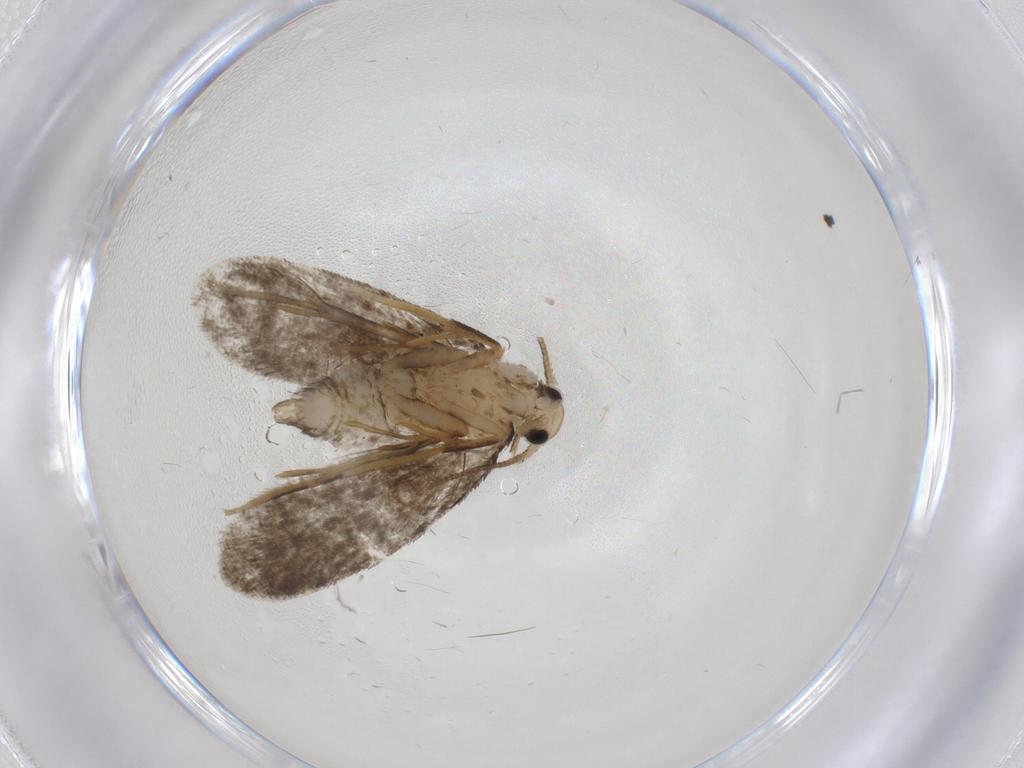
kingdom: Animalia
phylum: Arthropoda
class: Insecta
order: Lepidoptera
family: Psychidae
